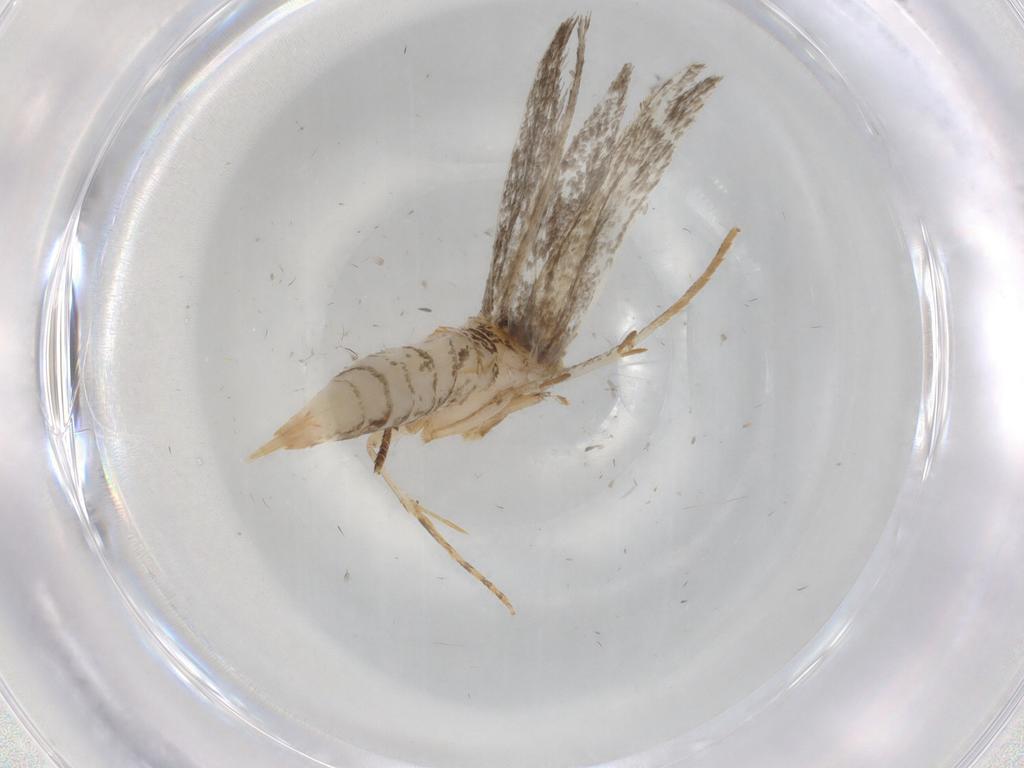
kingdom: Animalia
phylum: Arthropoda
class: Insecta
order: Lepidoptera
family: Tineidae
